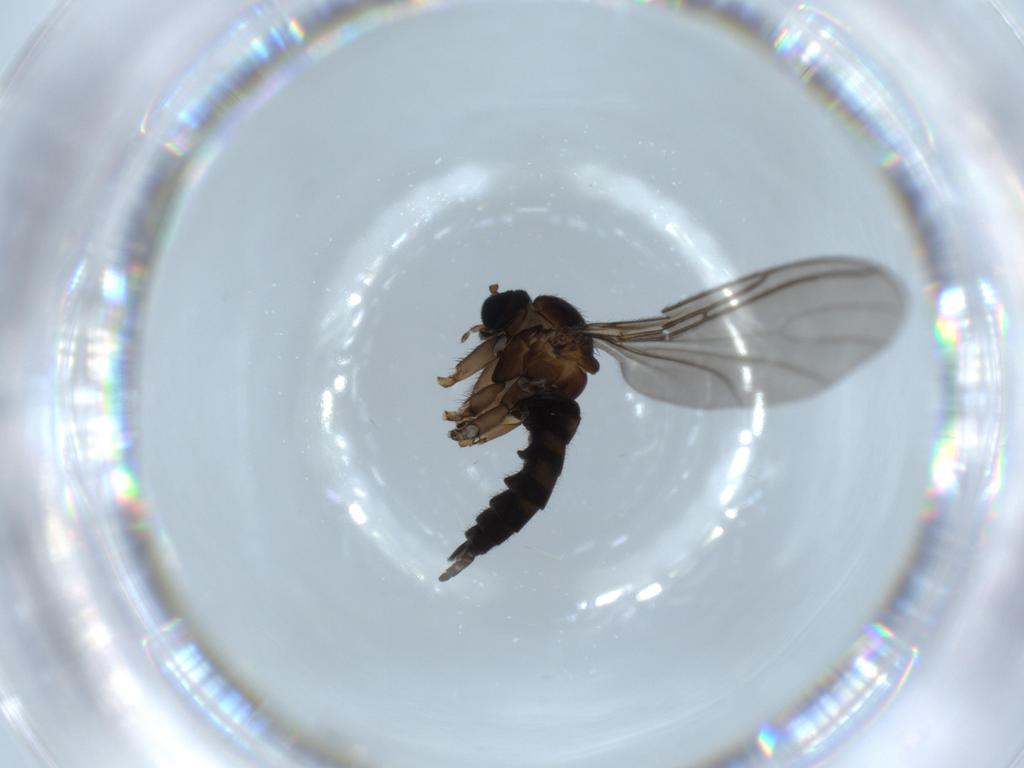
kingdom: Animalia
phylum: Arthropoda
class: Insecta
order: Diptera
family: Sciaridae
